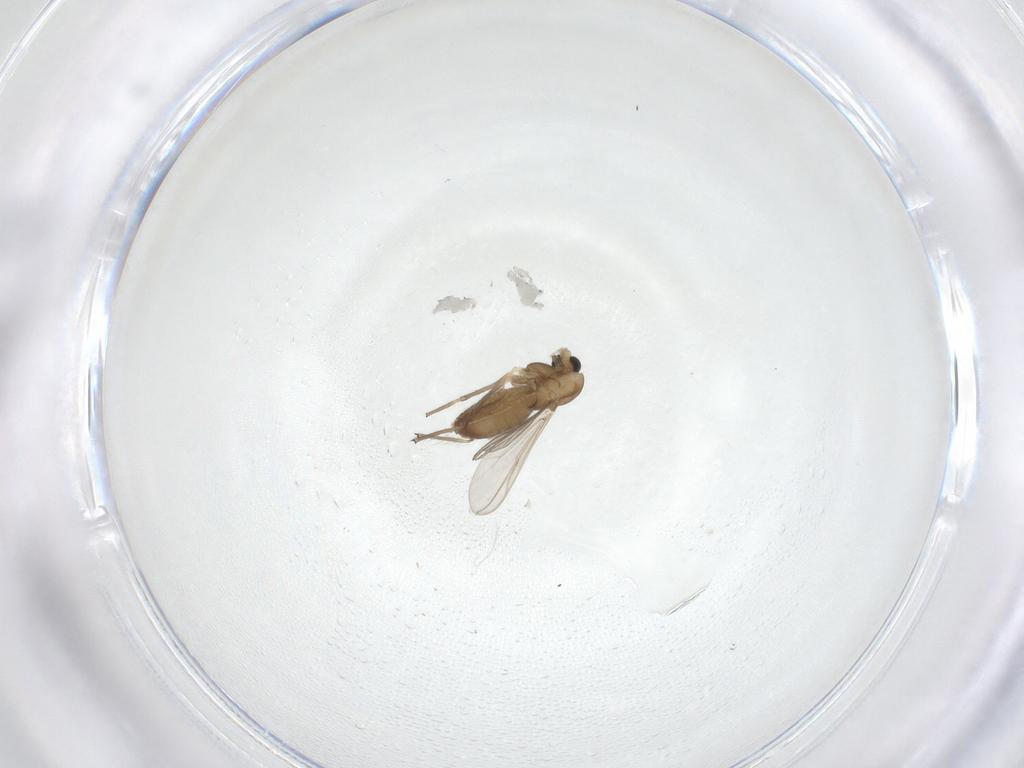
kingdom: Animalia
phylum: Arthropoda
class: Insecta
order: Diptera
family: Chironomidae
